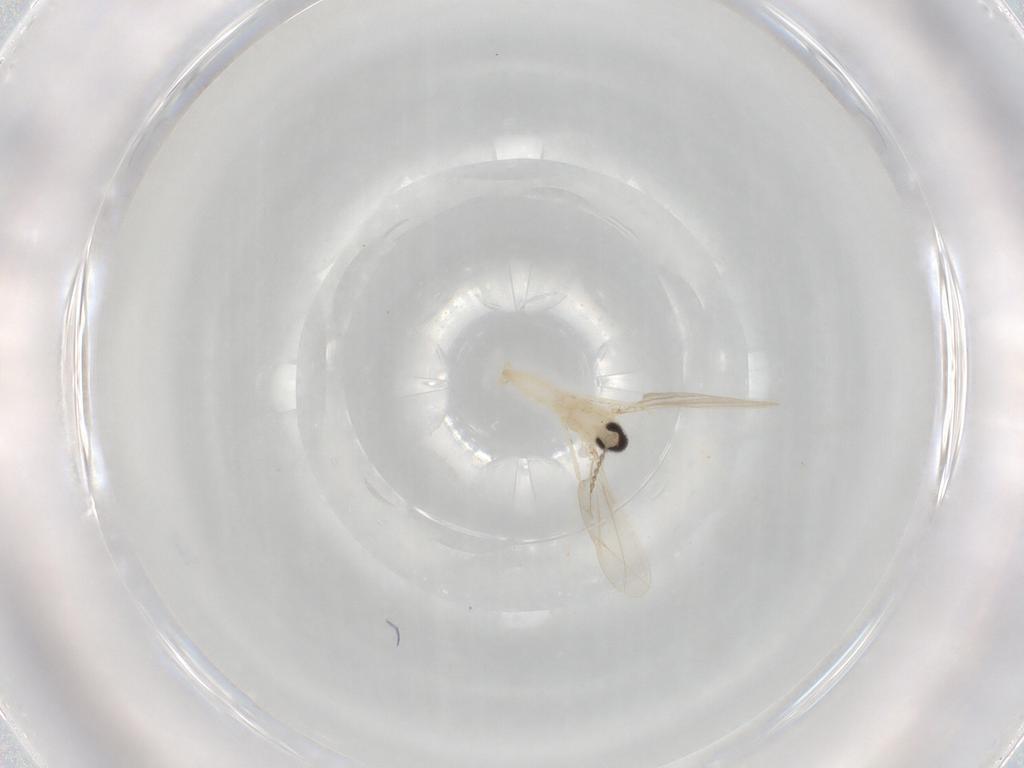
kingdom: Animalia
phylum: Arthropoda
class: Insecta
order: Diptera
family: Cecidomyiidae
